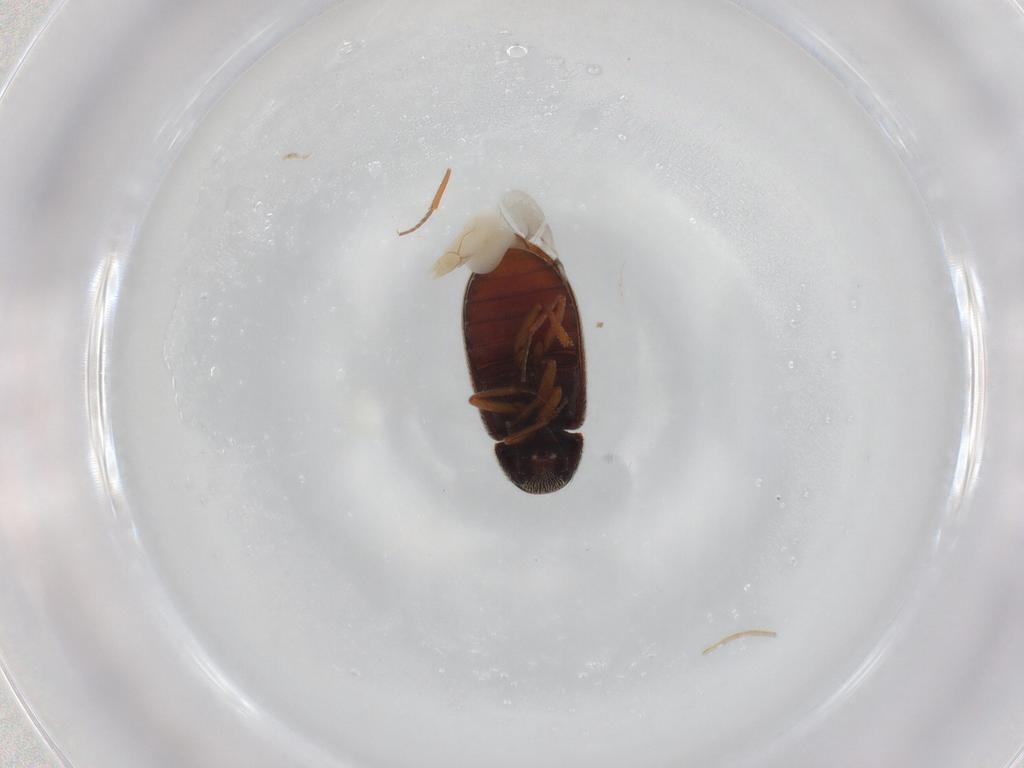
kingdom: Animalia
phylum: Arthropoda
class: Insecta
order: Coleoptera
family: Rhadalidae
